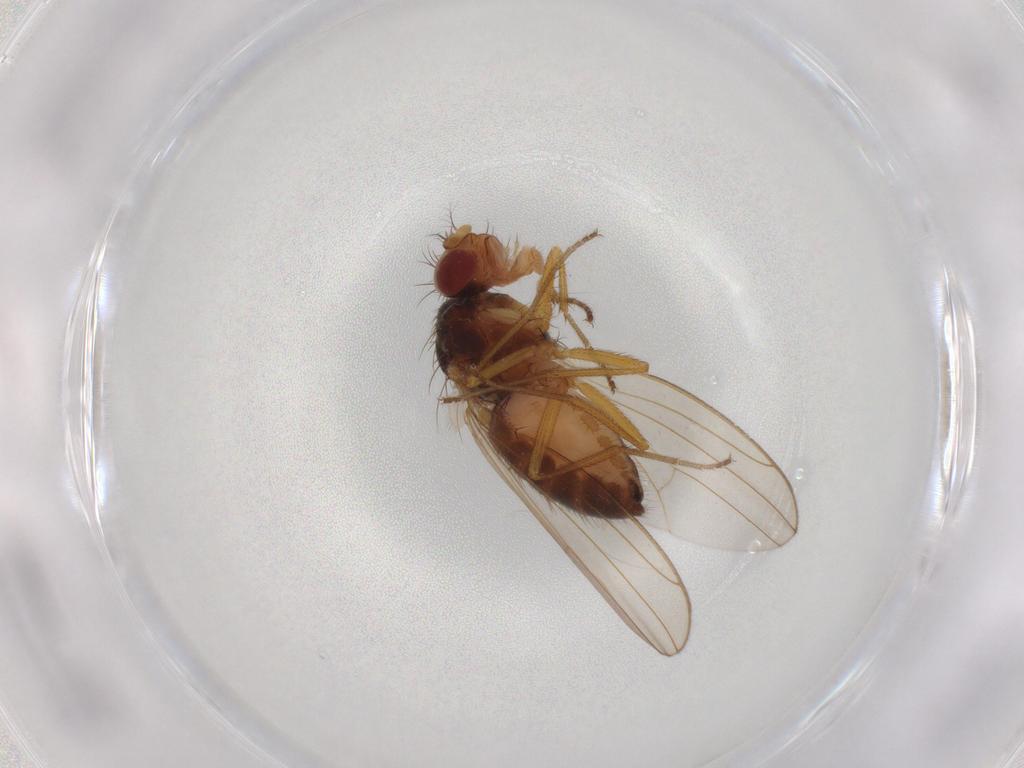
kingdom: Animalia
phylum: Arthropoda
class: Insecta
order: Diptera
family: Drosophilidae
